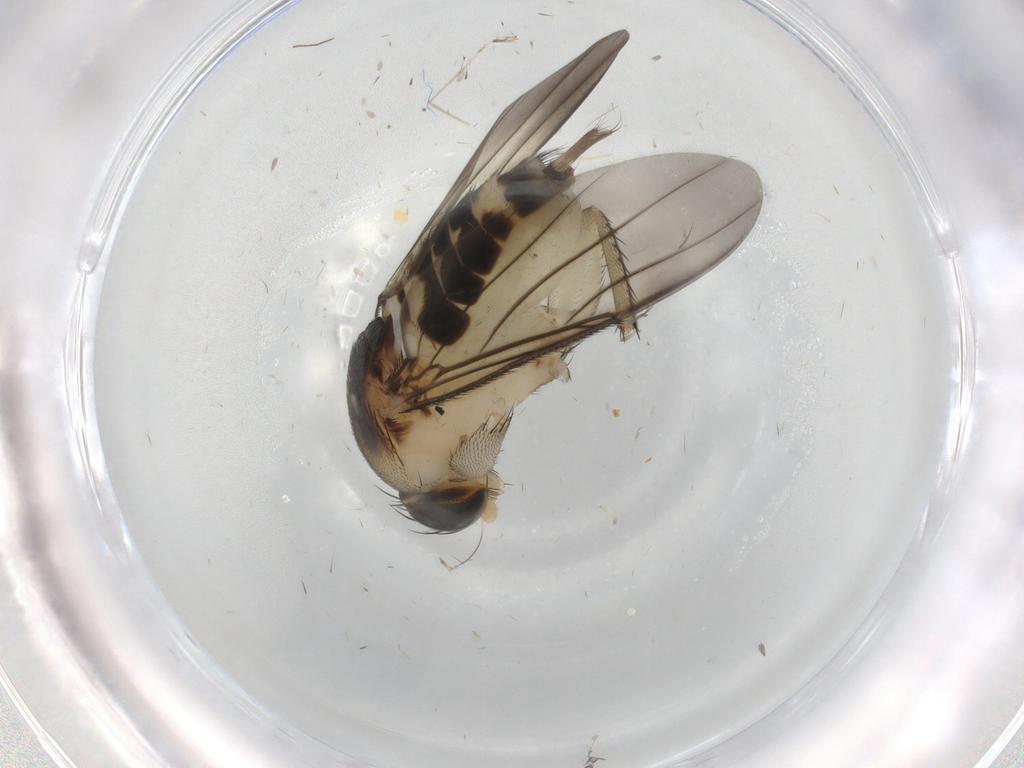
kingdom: Animalia
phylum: Arthropoda
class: Insecta
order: Diptera
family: Phoridae
